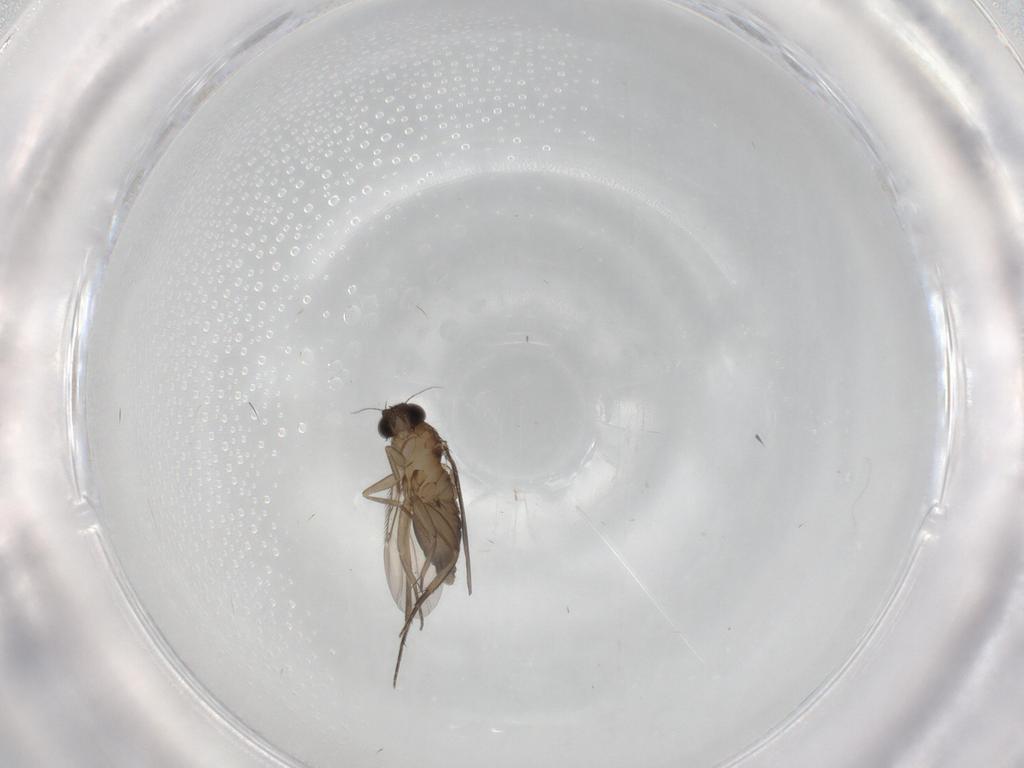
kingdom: Animalia
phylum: Arthropoda
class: Insecta
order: Diptera
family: Phoridae
